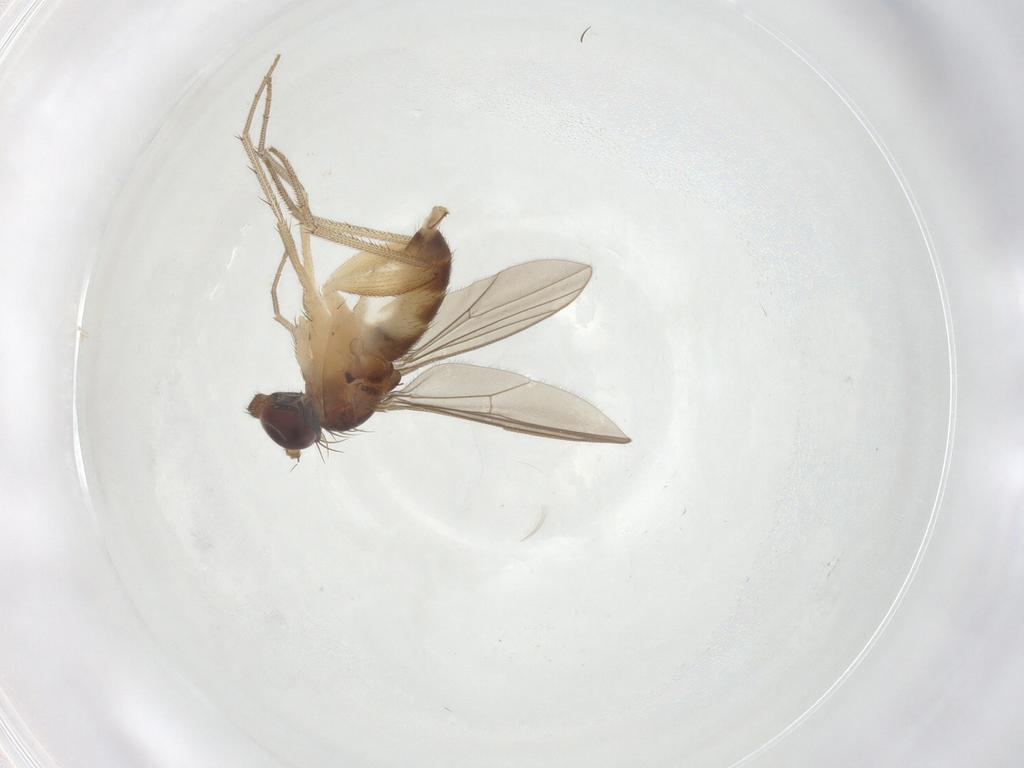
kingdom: Animalia
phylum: Arthropoda
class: Insecta
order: Diptera
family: Dolichopodidae
